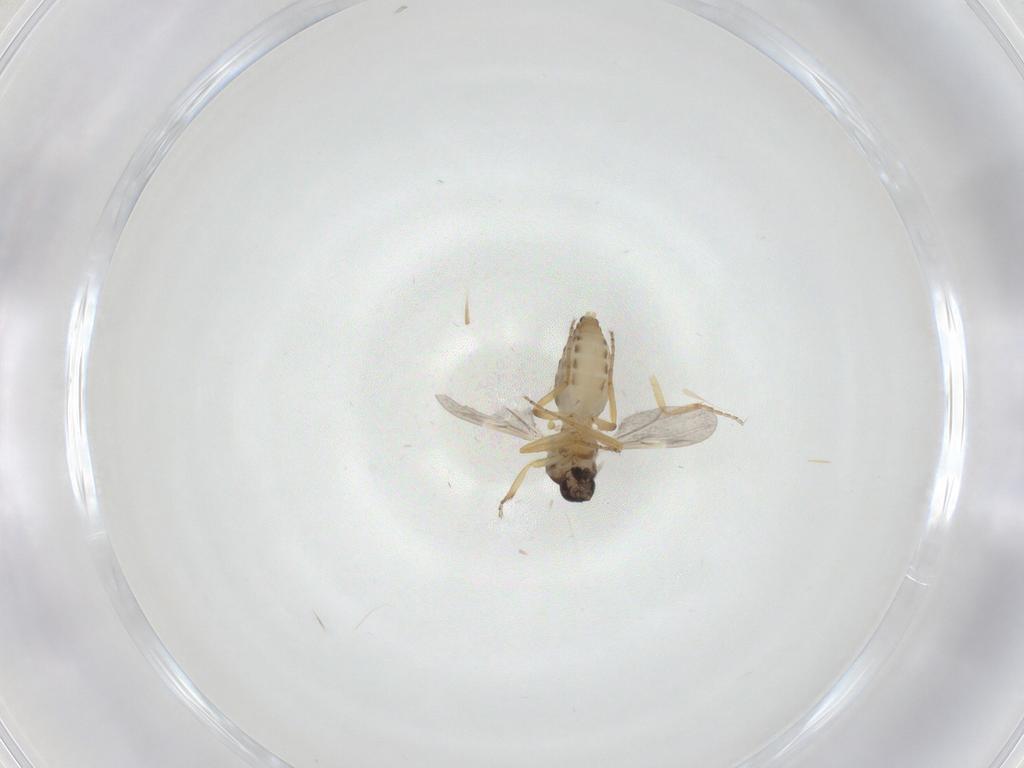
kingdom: Animalia
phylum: Arthropoda
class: Insecta
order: Diptera
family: Ceratopogonidae
